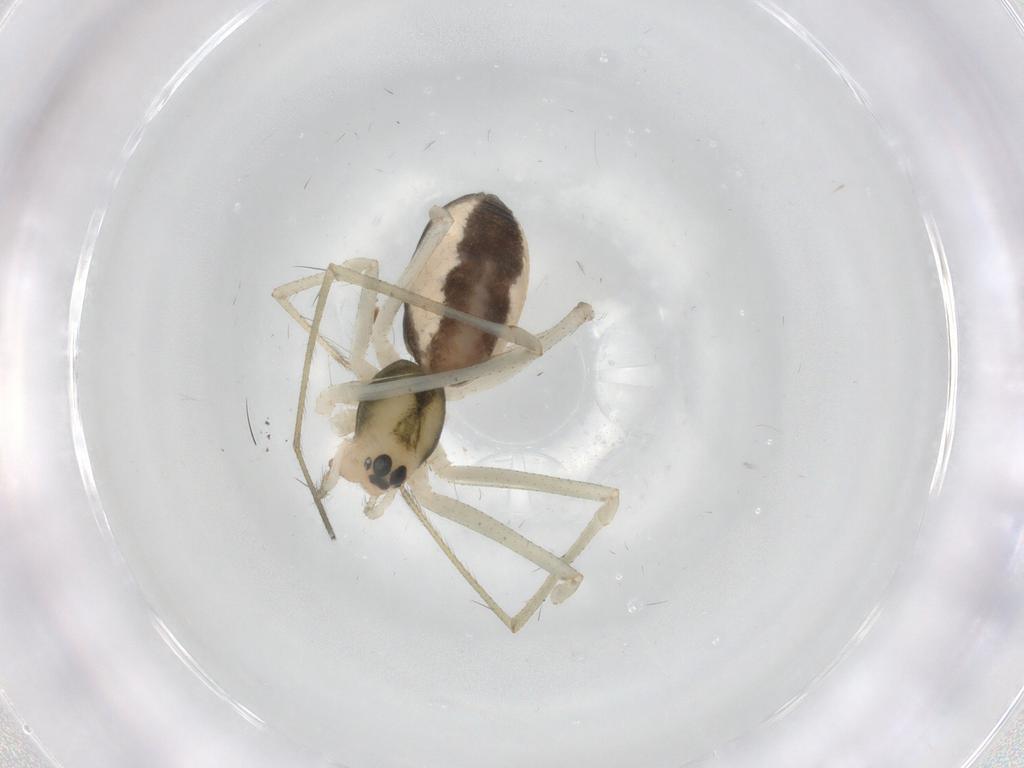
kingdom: Animalia
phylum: Arthropoda
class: Arachnida
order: Araneae
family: Linyphiidae
